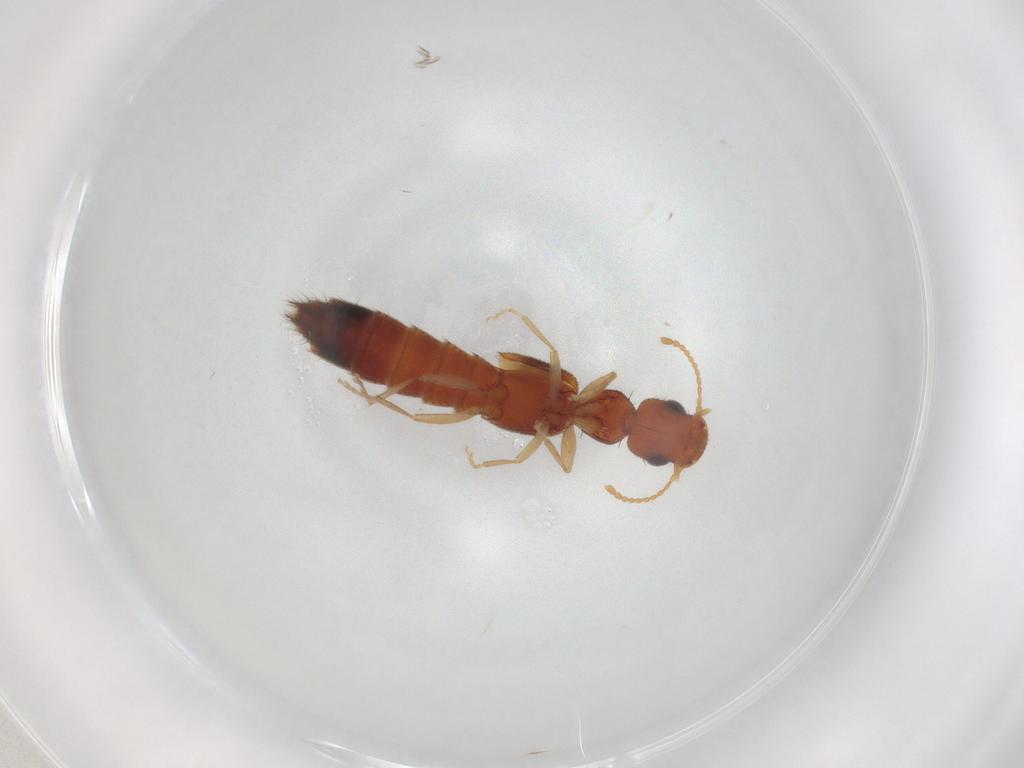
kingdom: Animalia
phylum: Arthropoda
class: Insecta
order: Coleoptera
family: Staphylinidae
